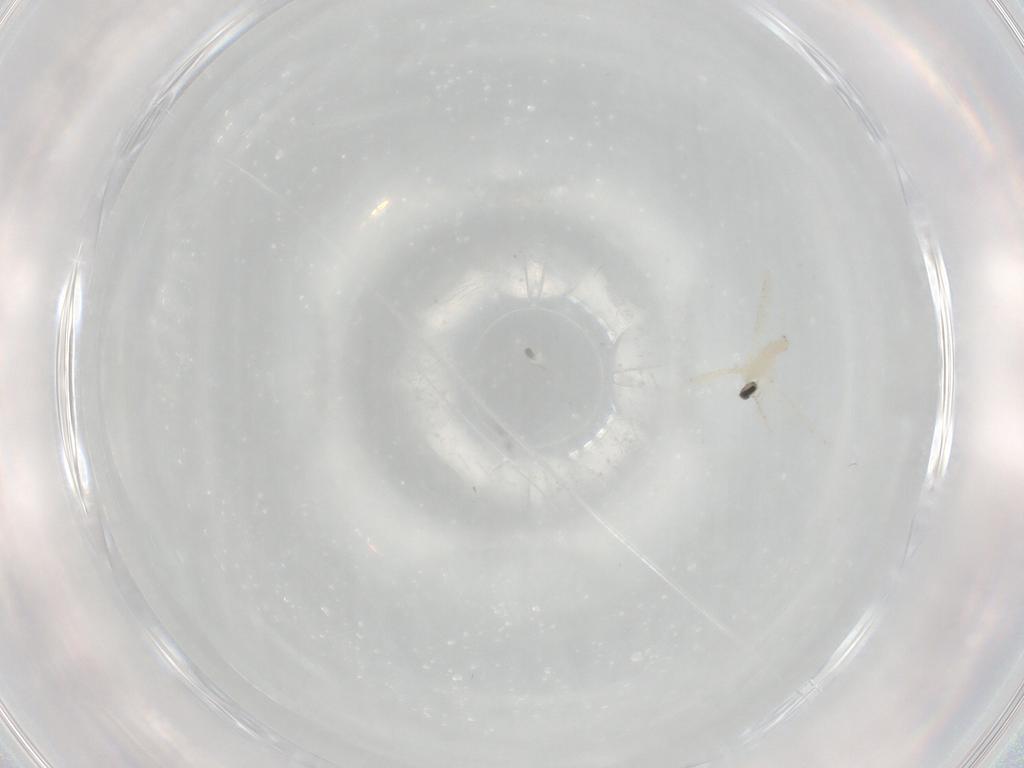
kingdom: Animalia
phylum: Arthropoda
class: Insecta
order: Diptera
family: Cecidomyiidae
